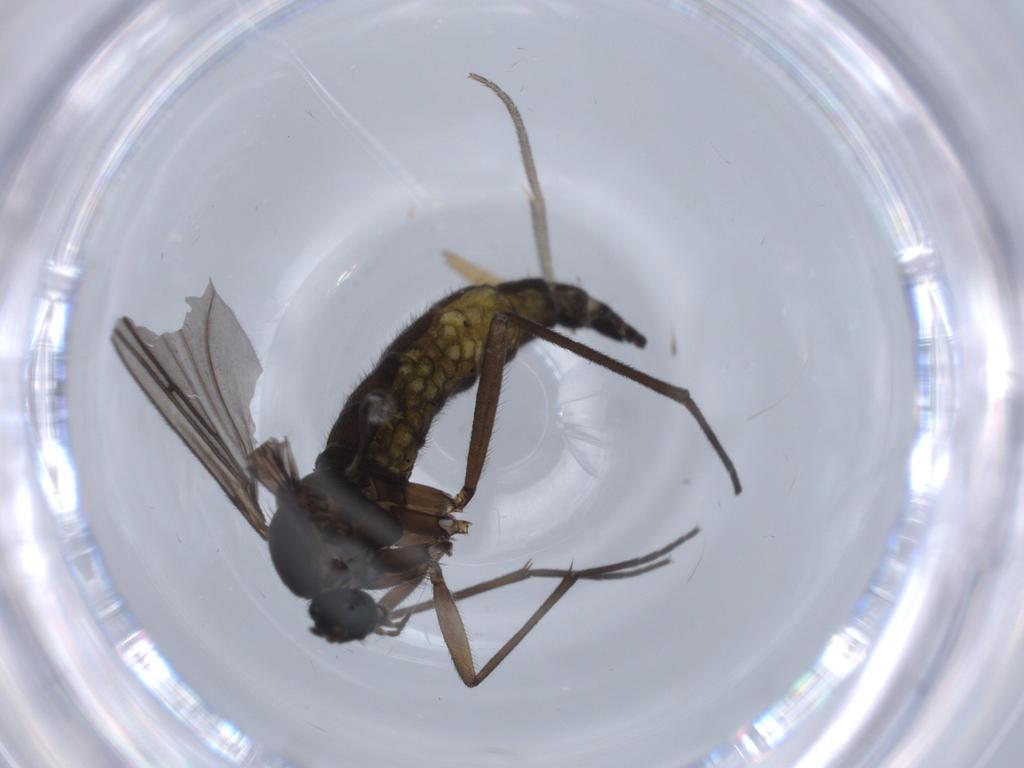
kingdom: Animalia
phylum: Arthropoda
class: Insecta
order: Diptera
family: Sciaridae
